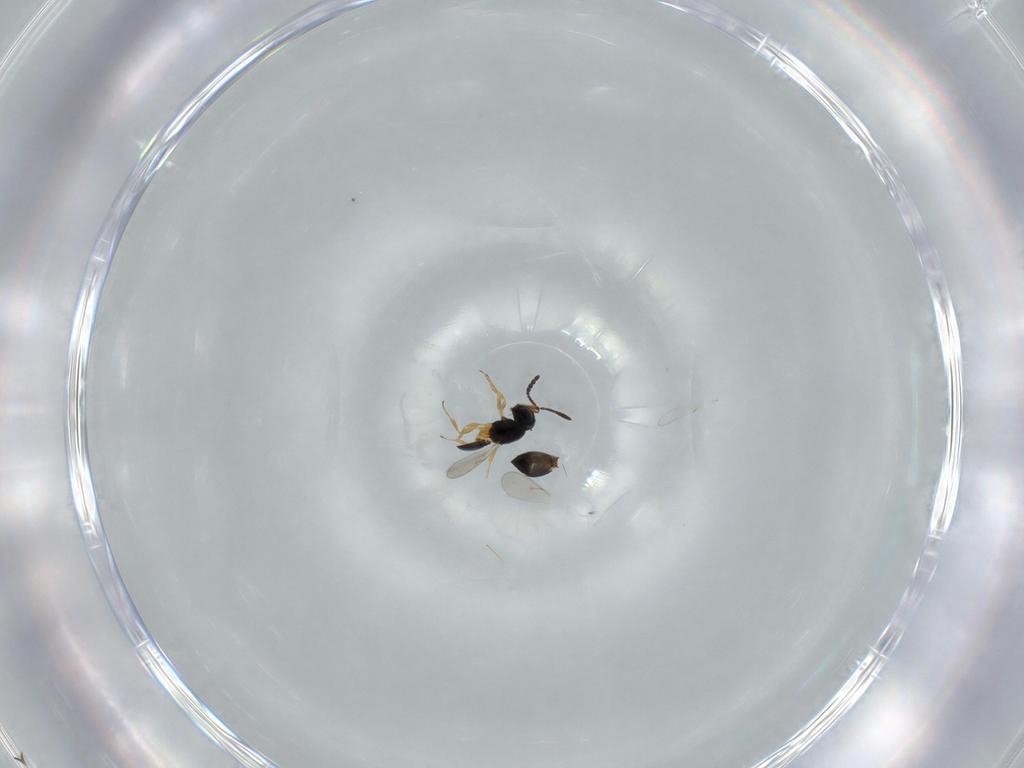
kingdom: Animalia
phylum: Arthropoda
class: Insecta
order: Hymenoptera
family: Scelionidae
